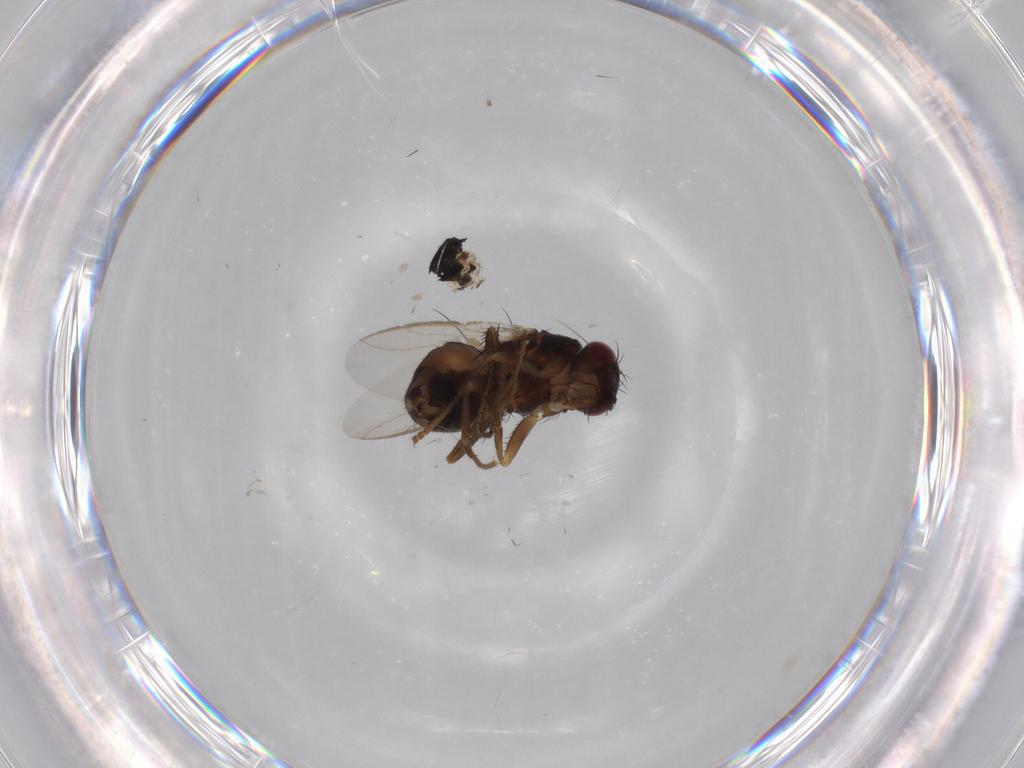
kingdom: Animalia
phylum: Arthropoda
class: Insecta
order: Diptera
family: Sphaeroceridae
